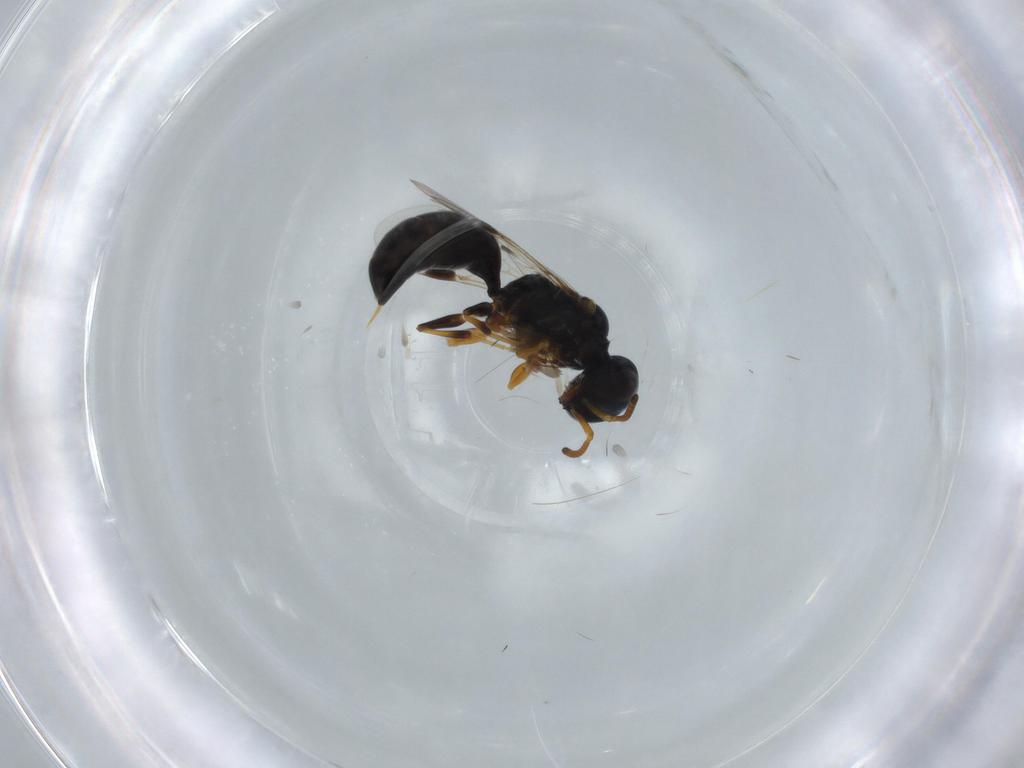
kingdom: Animalia
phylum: Arthropoda
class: Insecta
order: Hymenoptera
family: Pemphredonidae
